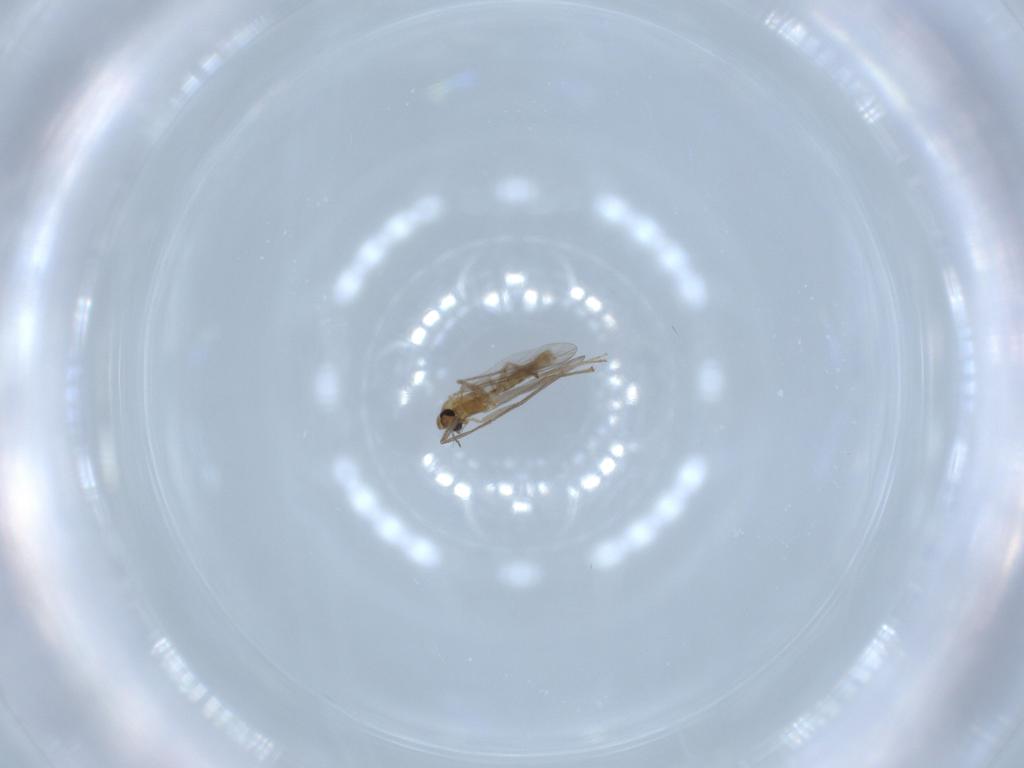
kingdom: Animalia
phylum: Arthropoda
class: Insecta
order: Diptera
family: Chironomidae
